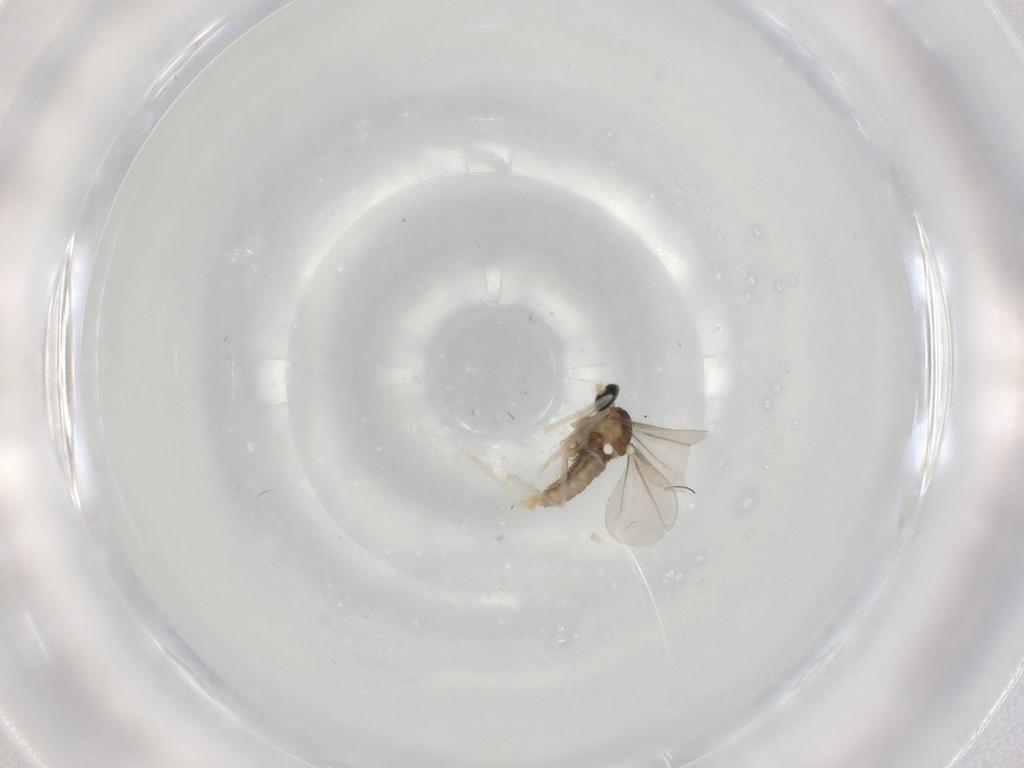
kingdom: Animalia
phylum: Arthropoda
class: Insecta
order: Diptera
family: Cecidomyiidae
